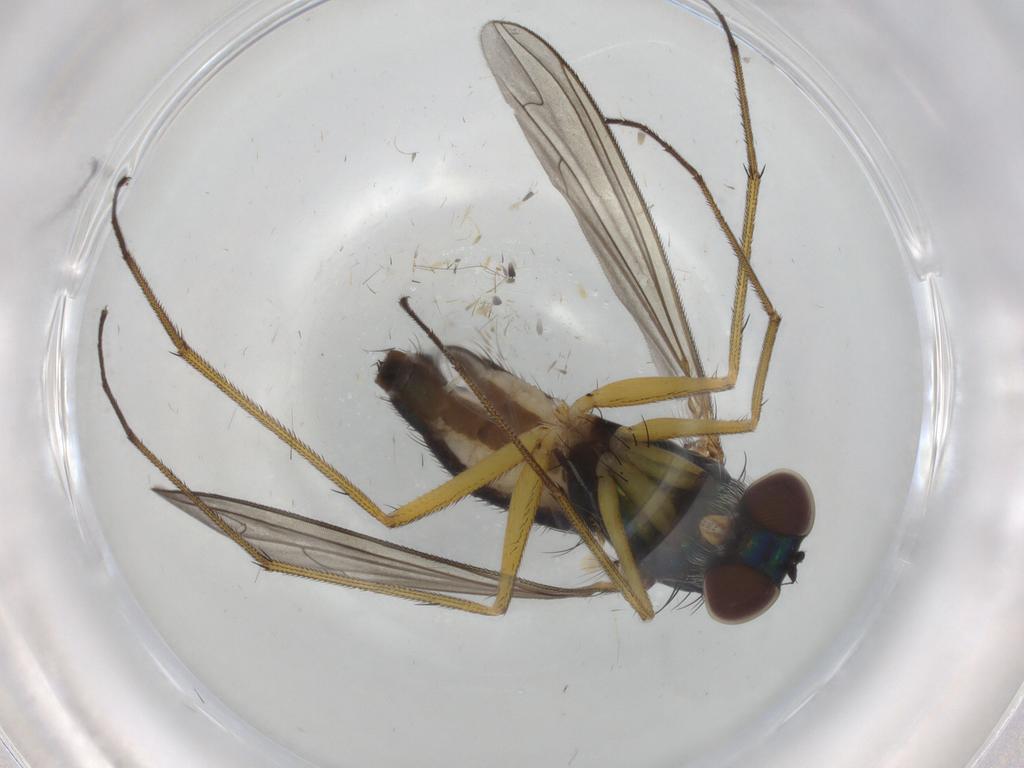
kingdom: Animalia
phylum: Arthropoda
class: Insecta
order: Diptera
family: Dolichopodidae
